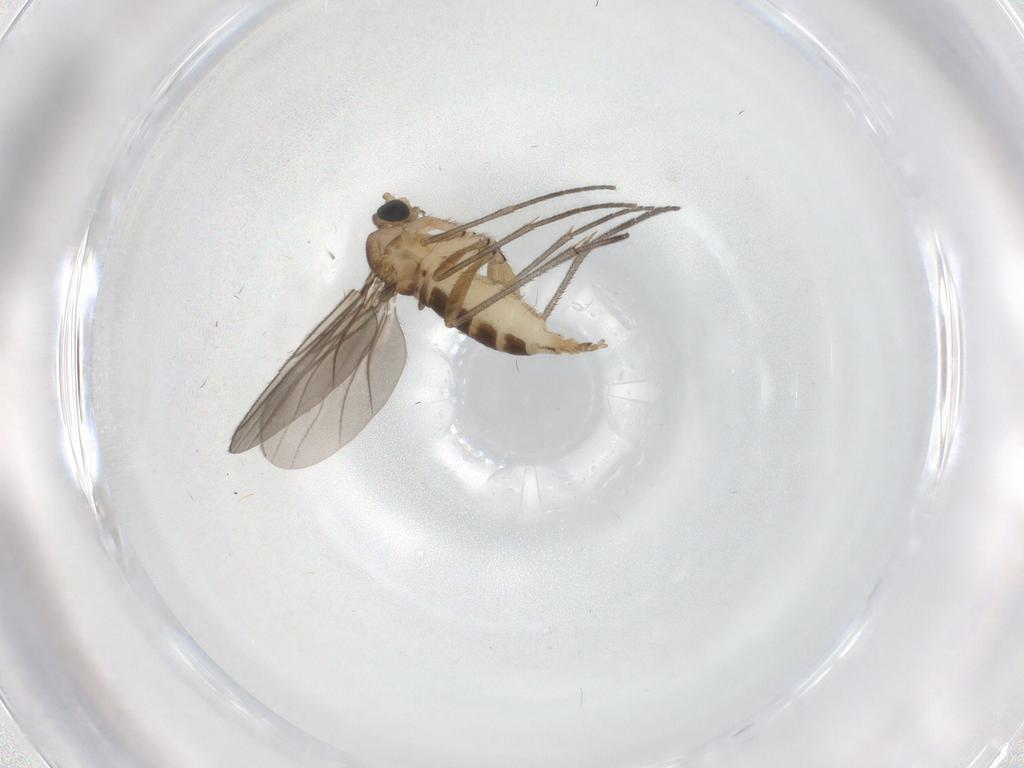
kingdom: Animalia
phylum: Arthropoda
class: Insecta
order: Diptera
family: Sciaridae
